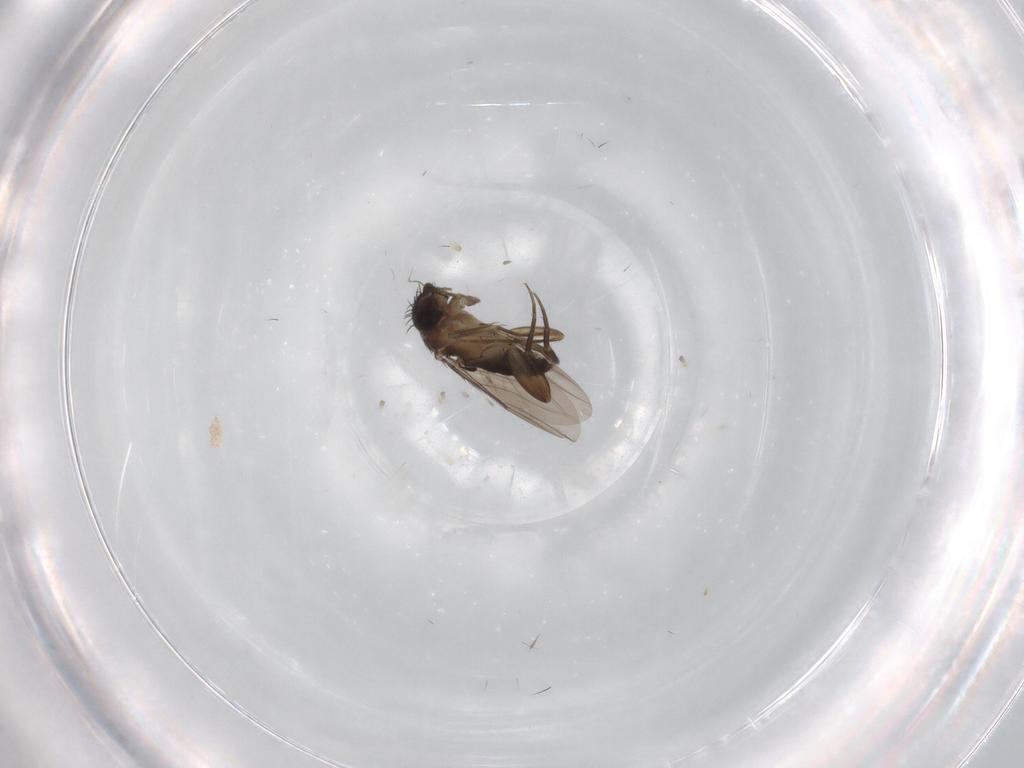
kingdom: Animalia
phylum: Arthropoda
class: Insecta
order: Diptera
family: Phoridae
